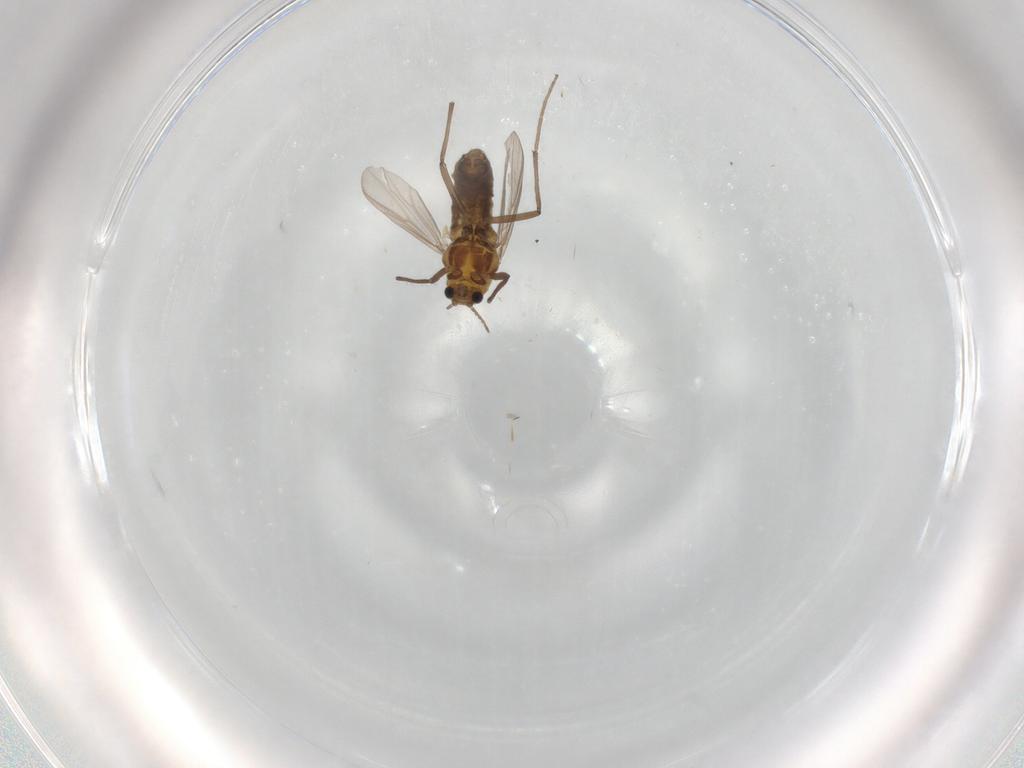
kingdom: Animalia
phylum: Arthropoda
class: Insecta
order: Diptera
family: Chironomidae
